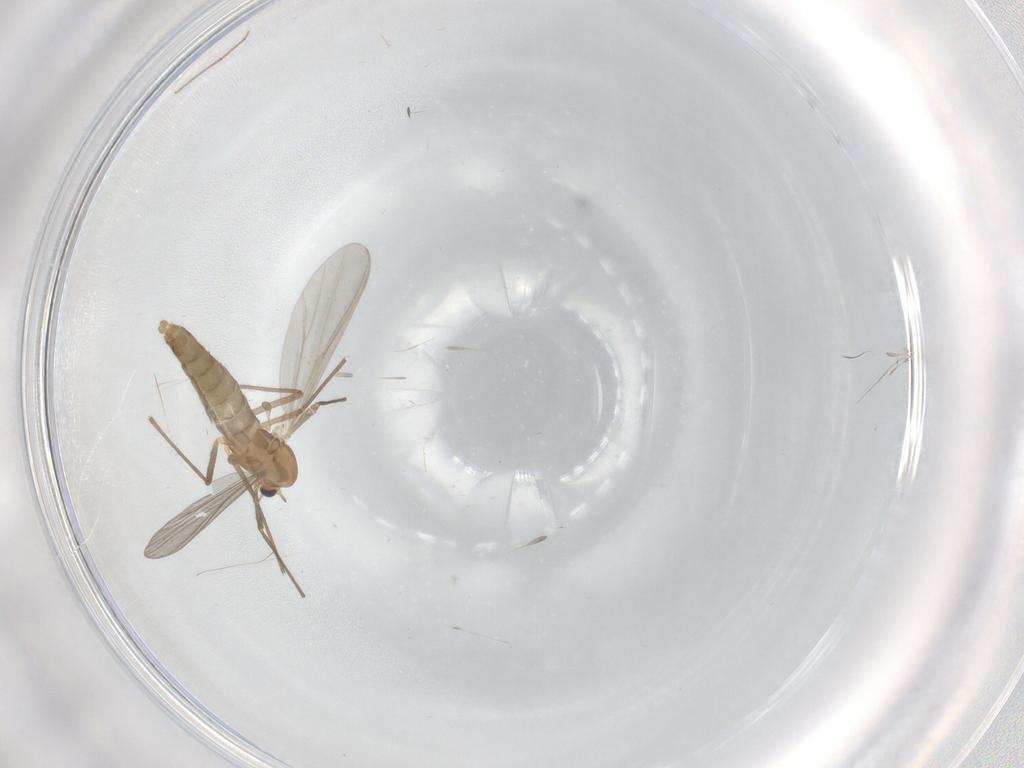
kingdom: Animalia
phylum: Arthropoda
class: Insecta
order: Diptera
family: Chironomidae
